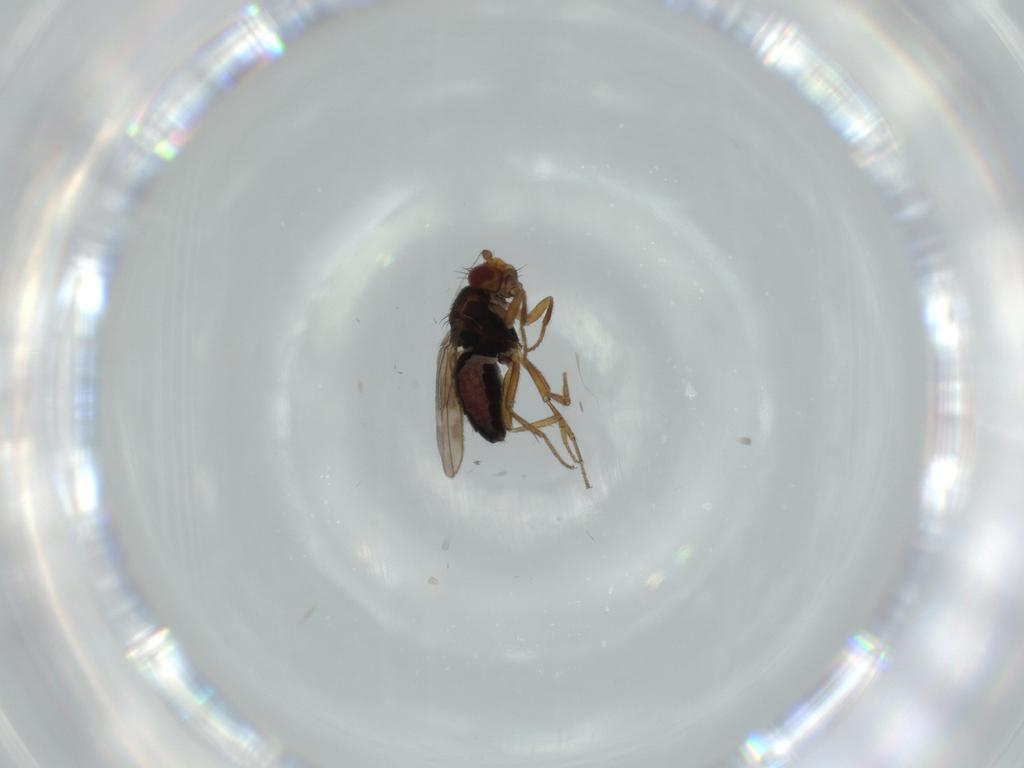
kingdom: Animalia
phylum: Arthropoda
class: Insecta
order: Diptera
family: Sphaeroceridae
